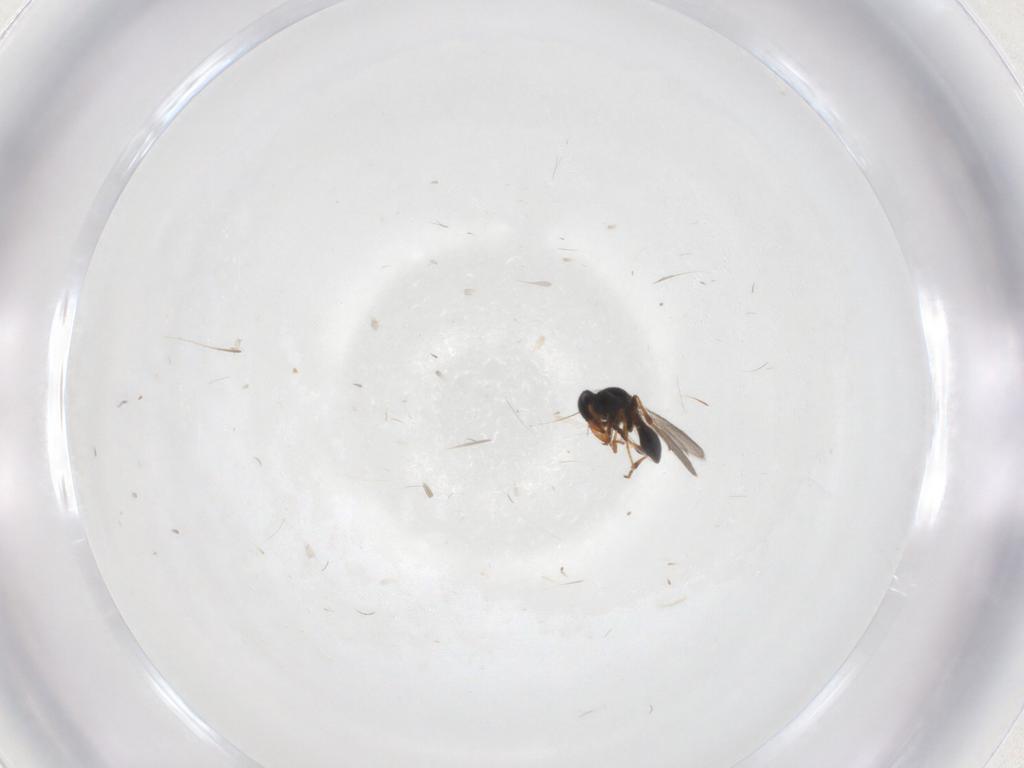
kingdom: Animalia
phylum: Arthropoda
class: Insecta
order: Hymenoptera
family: Platygastridae
